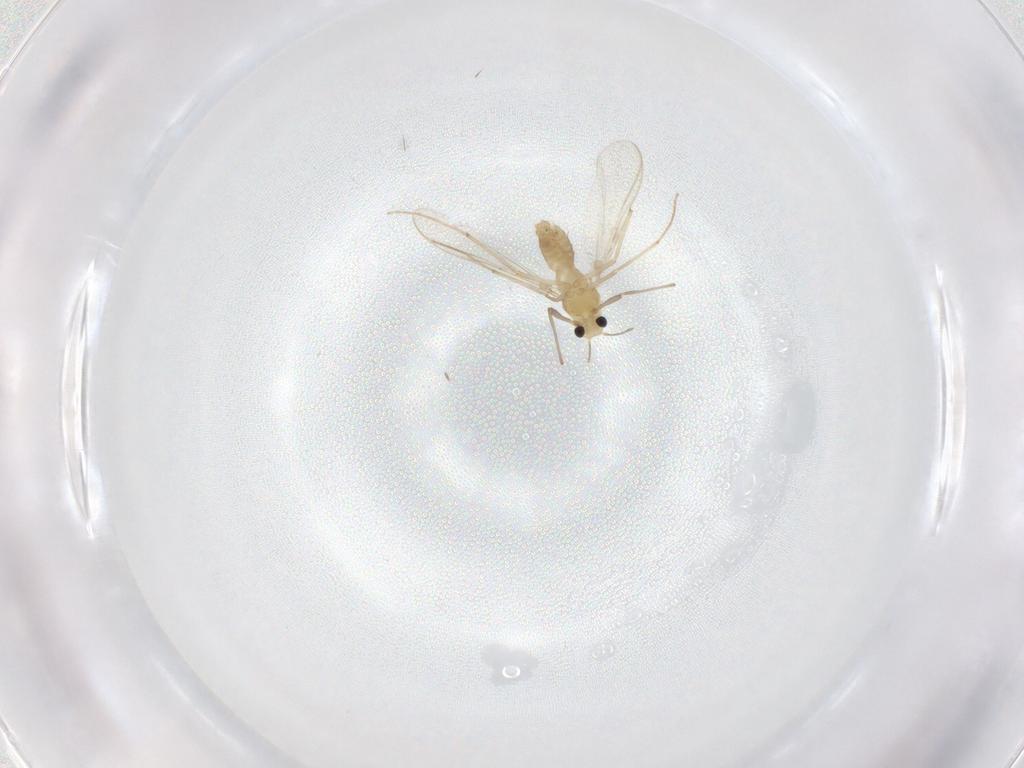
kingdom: Animalia
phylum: Arthropoda
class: Insecta
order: Diptera
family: Chironomidae
